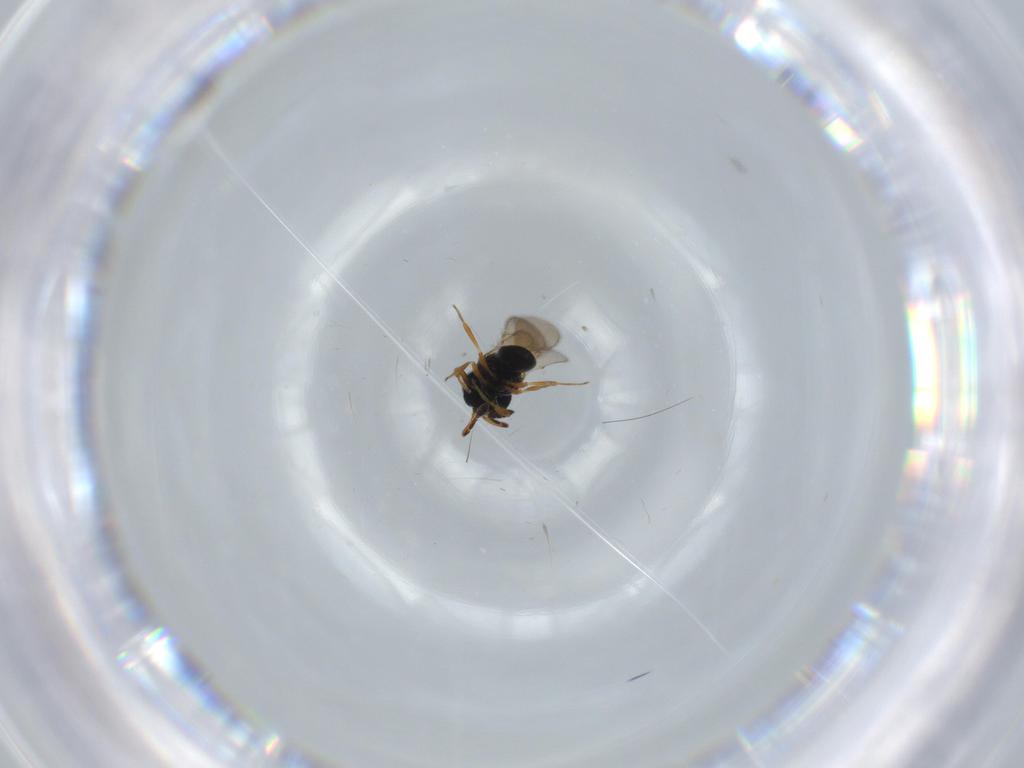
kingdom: Animalia
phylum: Arthropoda
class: Insecta
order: Hymenoptera
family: Scelionidae
